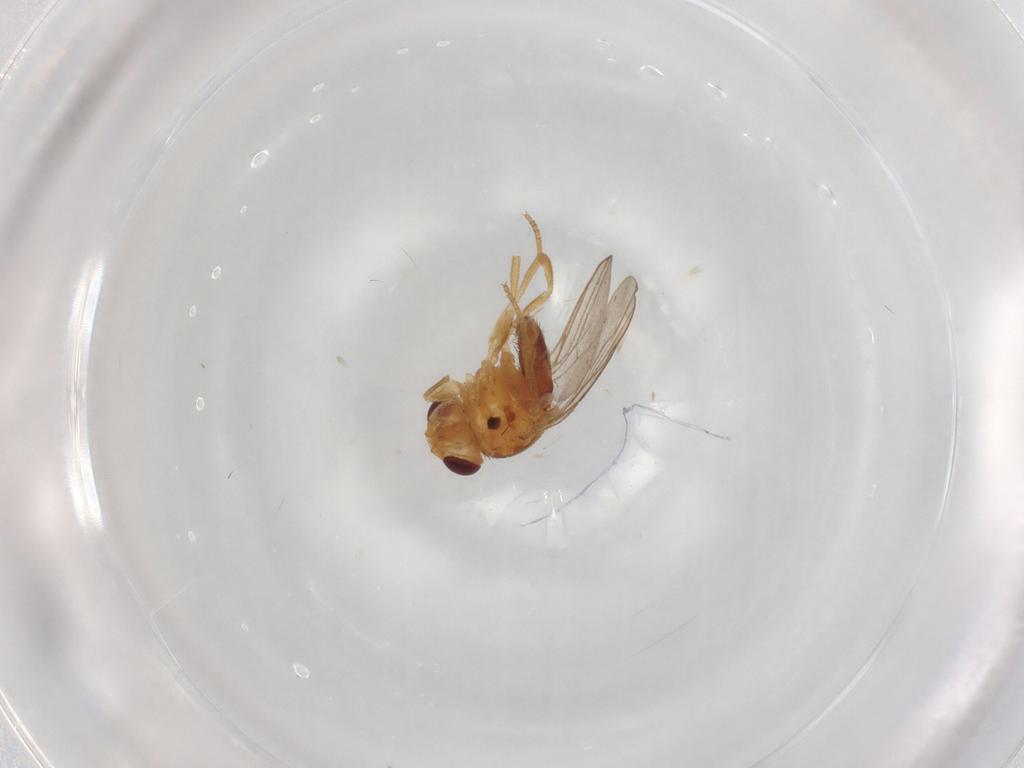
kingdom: Animalia
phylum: Arthropoda
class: Insecta
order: Diptera
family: Chloropidae
